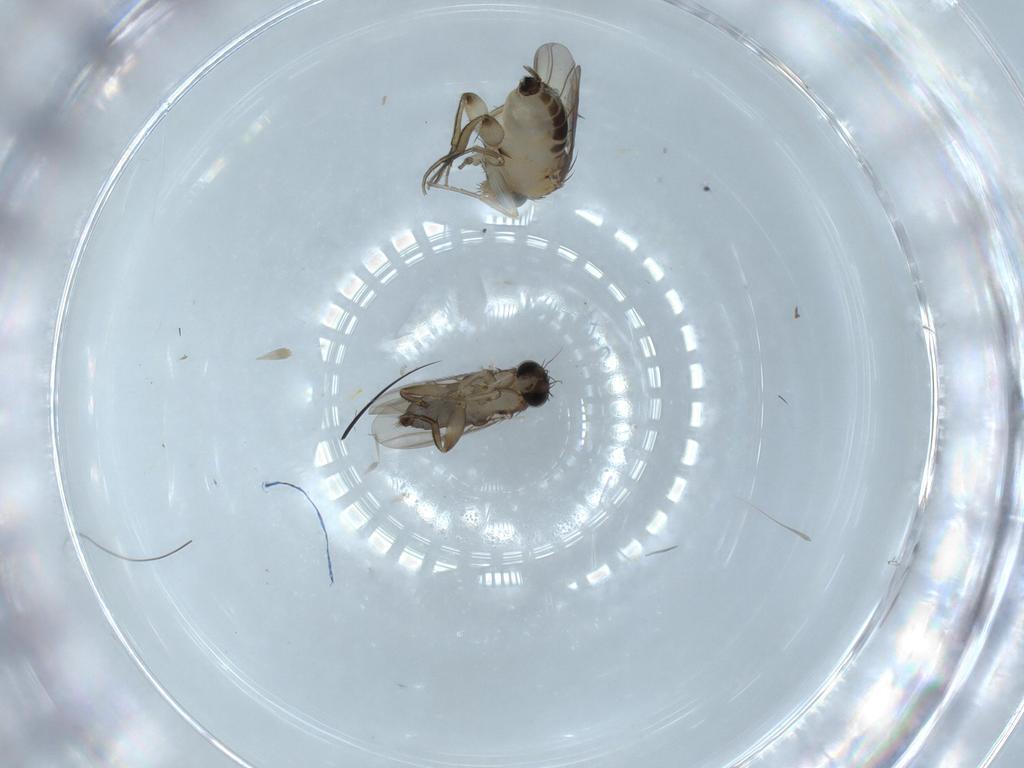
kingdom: Animalia
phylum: Arthropoda
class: Insecta
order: Diptera
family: Phoridae
